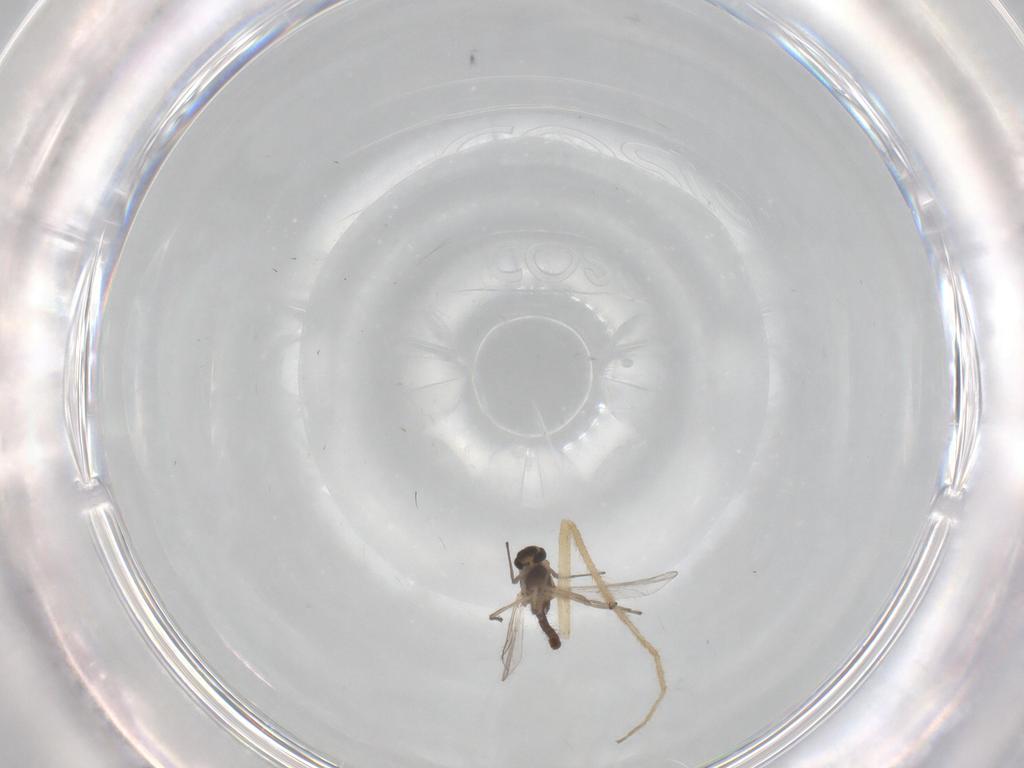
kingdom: Animalia
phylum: Arthropoda
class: Insecta
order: Diptera
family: Chironomidae
